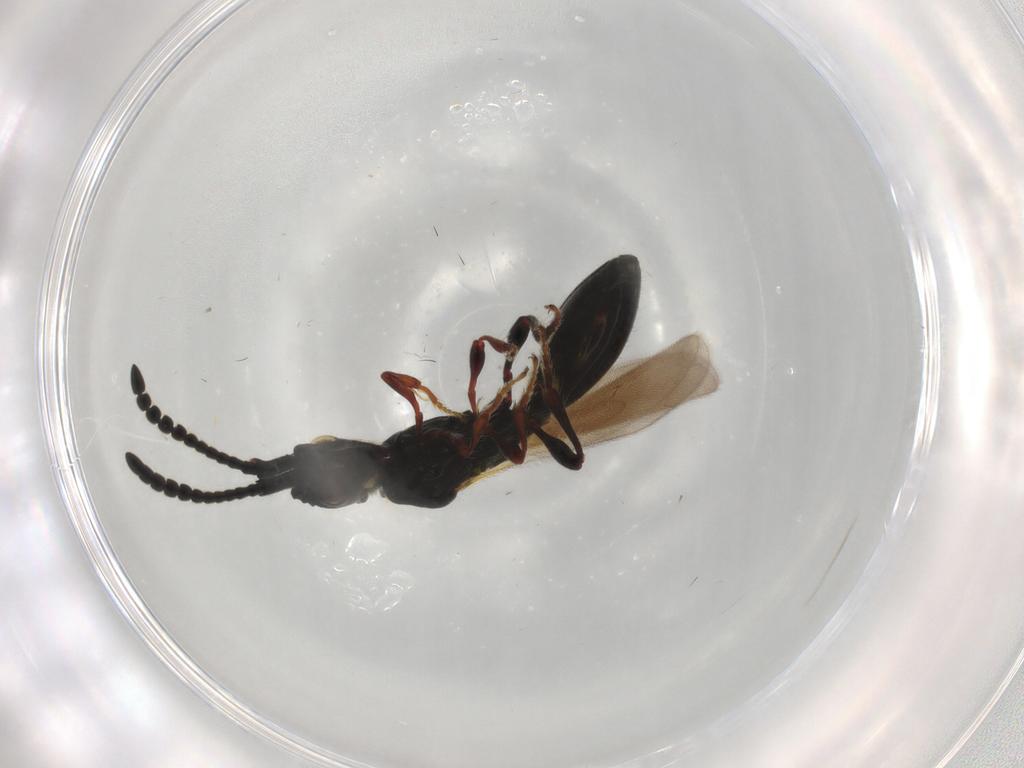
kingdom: Animalia
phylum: Arthropoda
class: Insecta
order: Hymenoptera
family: Diapriidae
